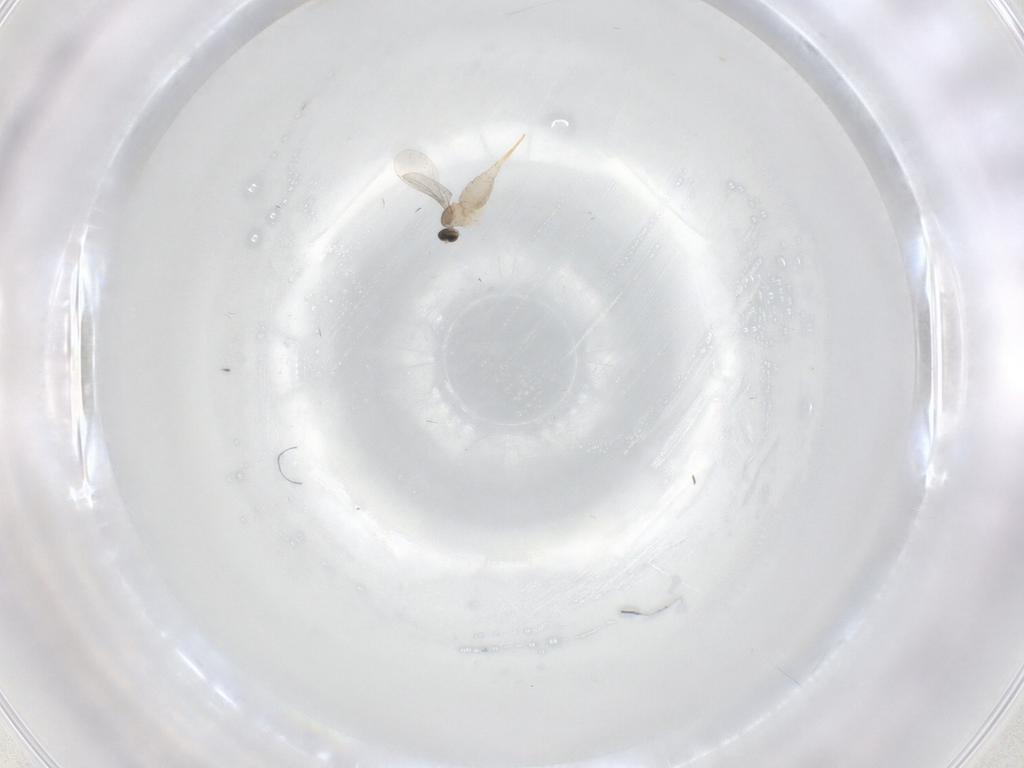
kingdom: Animalia
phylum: Arthropoda
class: Insecta
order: Diptera
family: Cecidomyiidae
